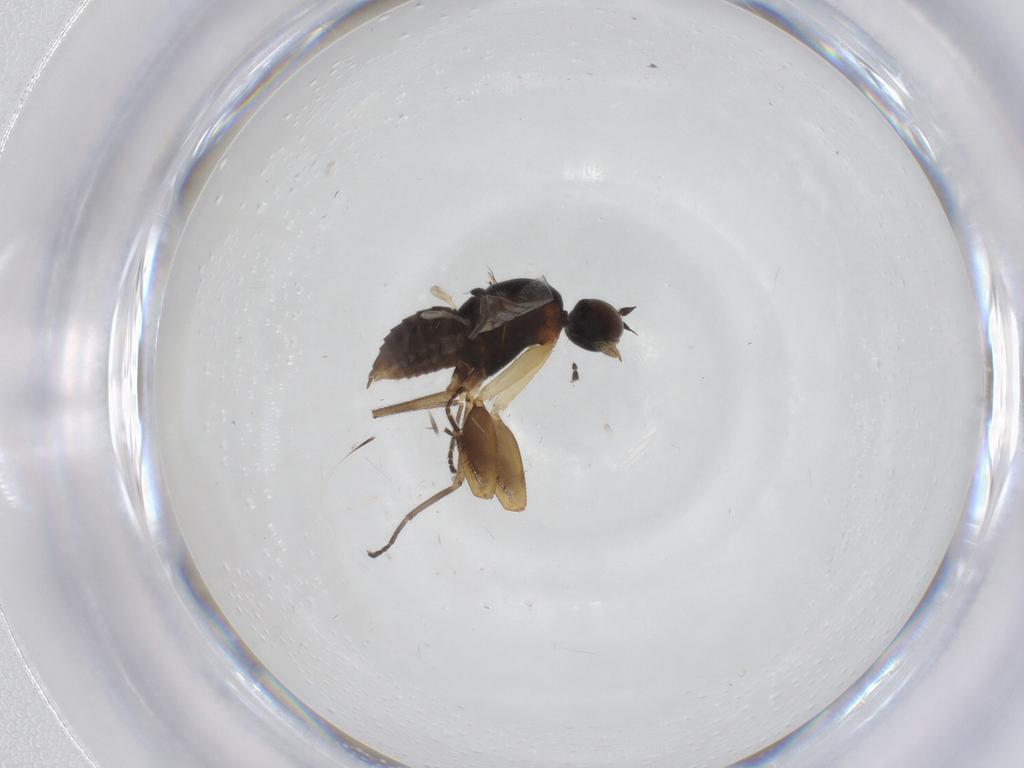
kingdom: Animalia
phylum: Arthropoda
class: Insecta
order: Diptera
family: Empididae
